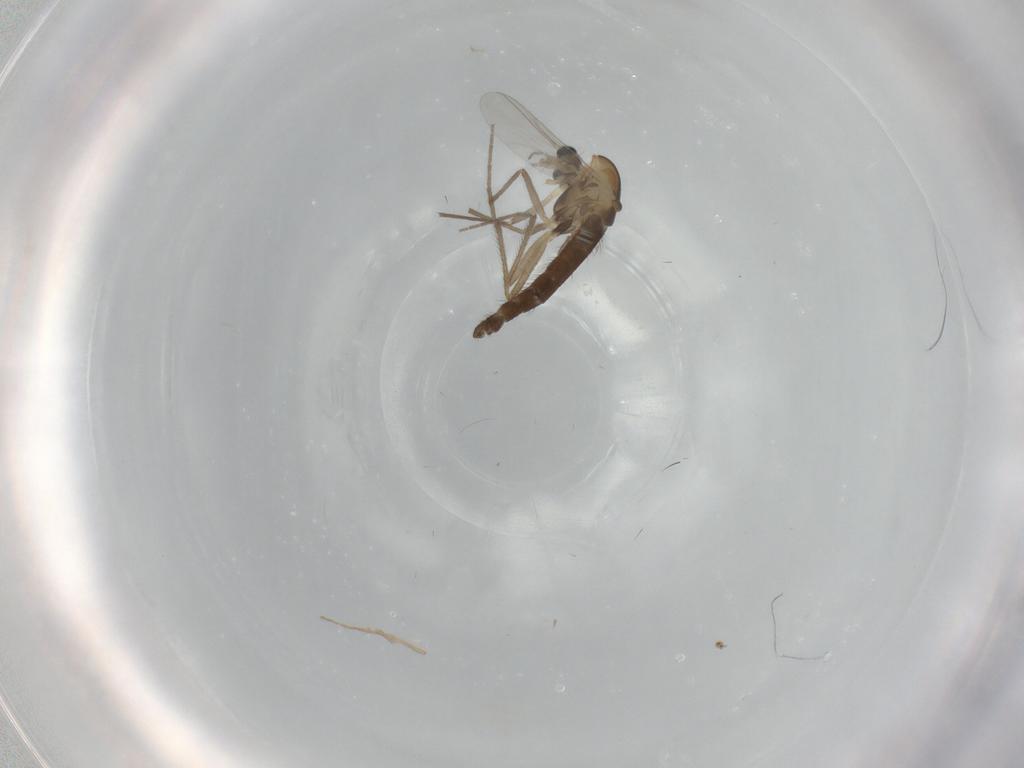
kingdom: Animalia
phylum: Arthropoda
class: Insecta
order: Diptera
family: Chironomidae
